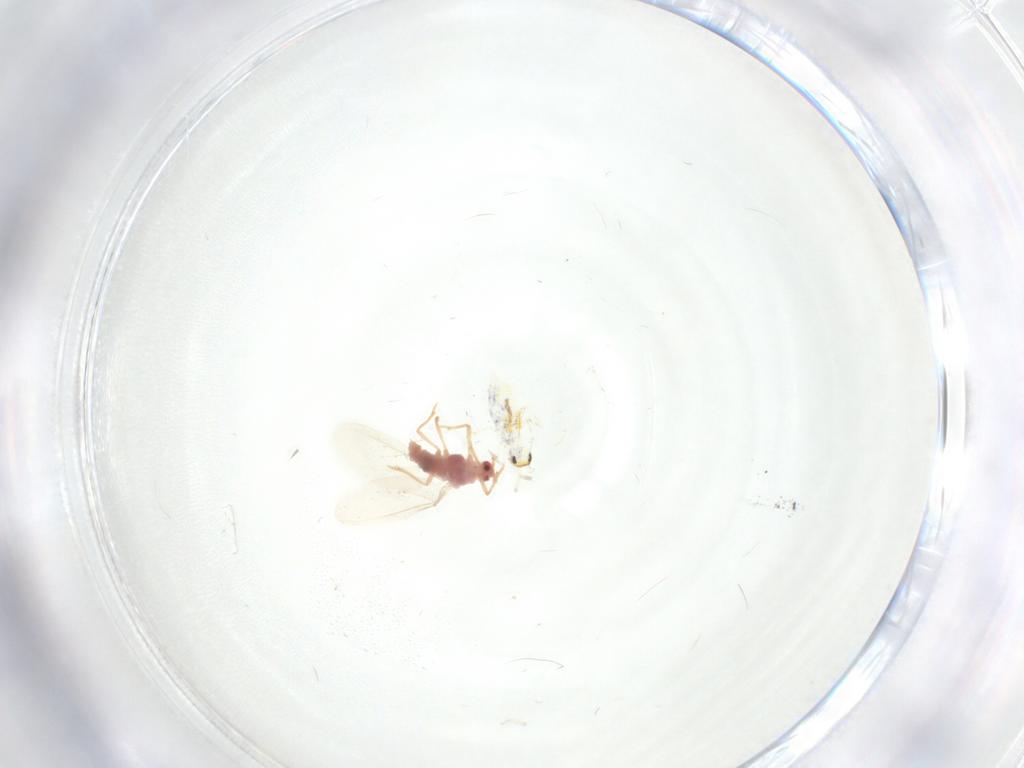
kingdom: Animalia
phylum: Arthropoda
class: Collembola
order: Entomobryomorpha
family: Entomobryidae
